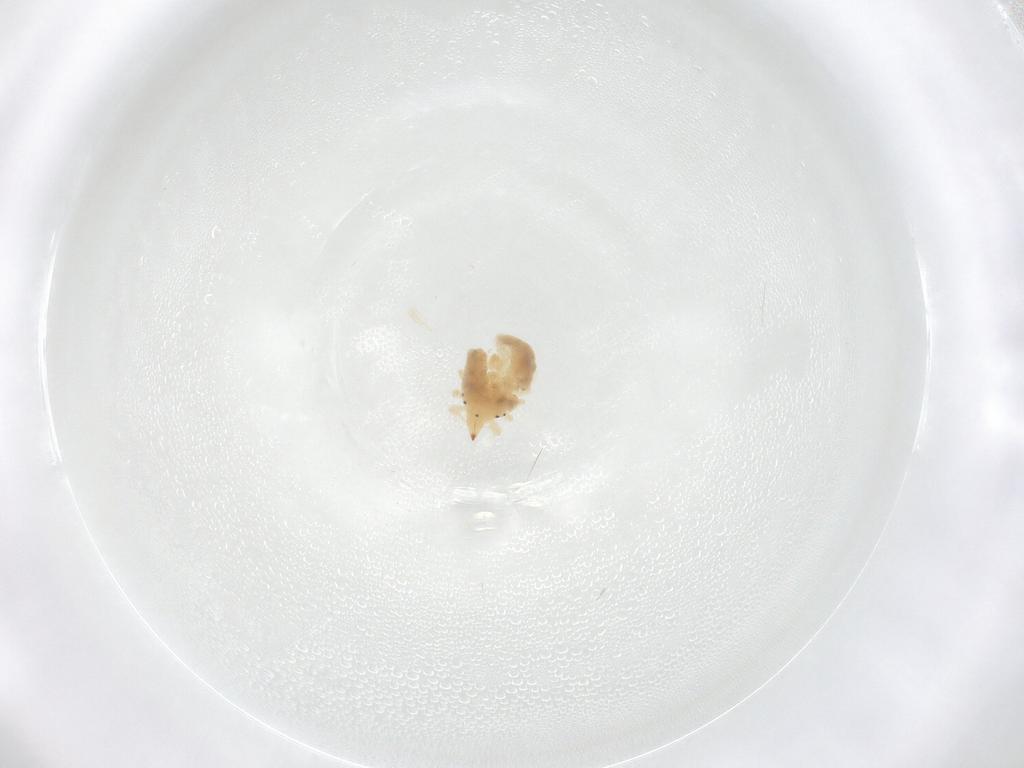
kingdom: Animalia
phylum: Arthropoda
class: Arachnida
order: Trombidiformes
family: Bdellidae
